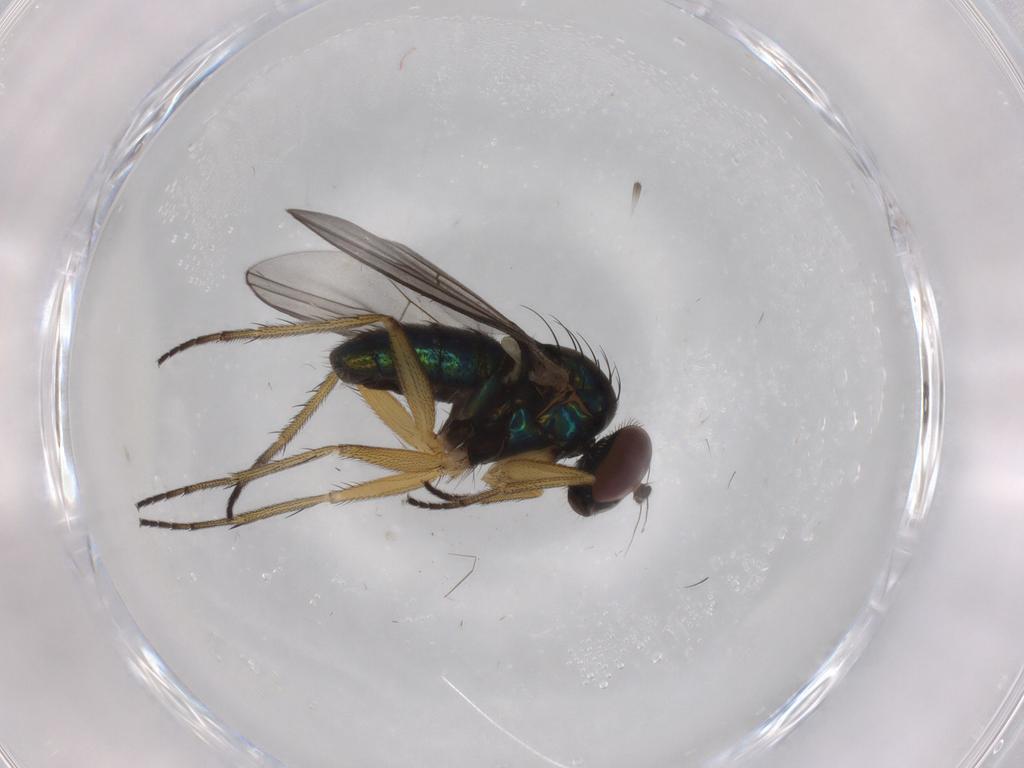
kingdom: Animalia
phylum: Arthropoda
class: Insecta
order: Diptera
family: Dolichopodidae
